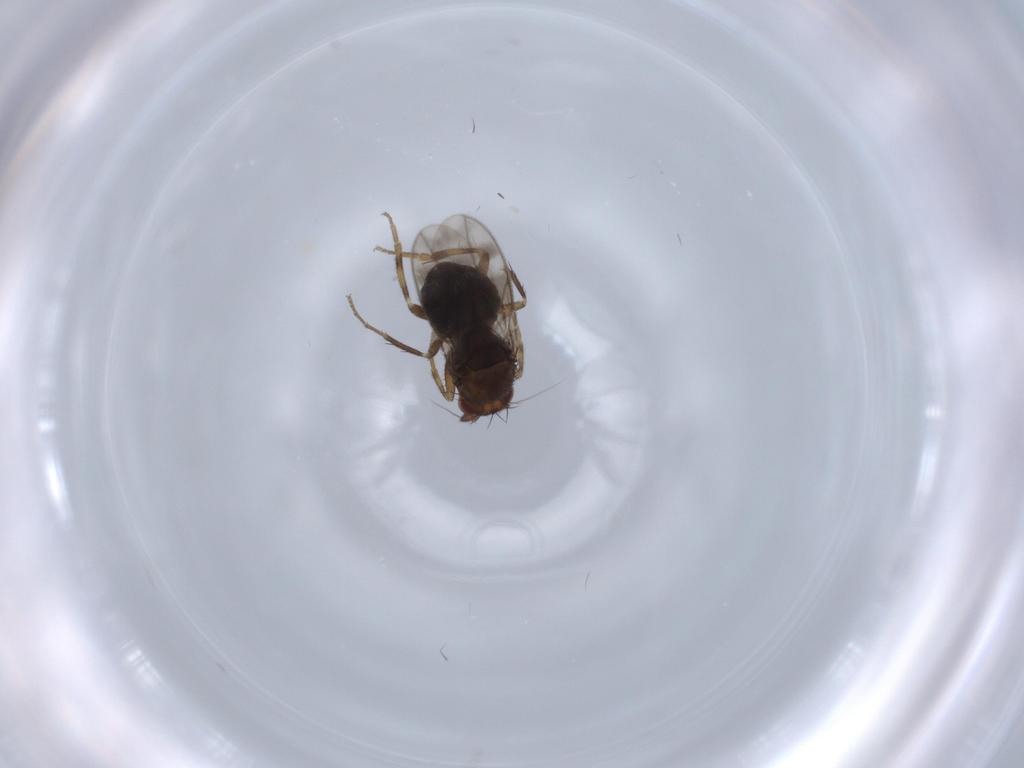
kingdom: Animalia
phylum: Arthropoda
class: Insecta
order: Diptera
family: Sphaeroceridae
